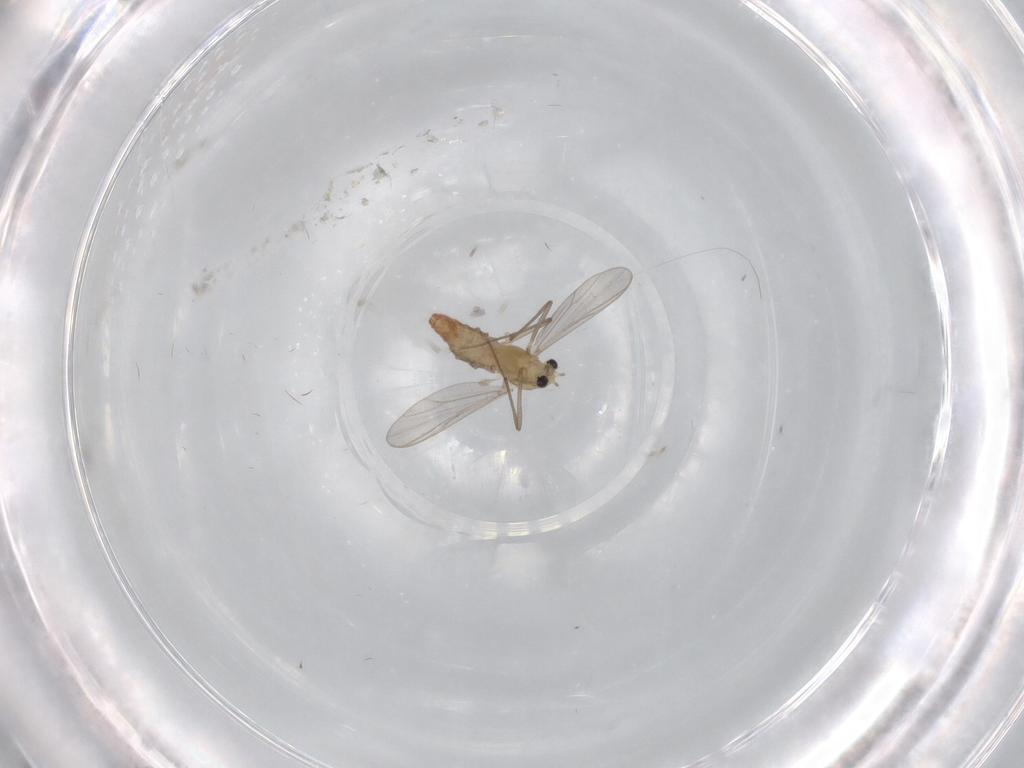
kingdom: Animalia
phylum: Arthropoda
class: Insecta
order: Diptera
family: Chironomidae
